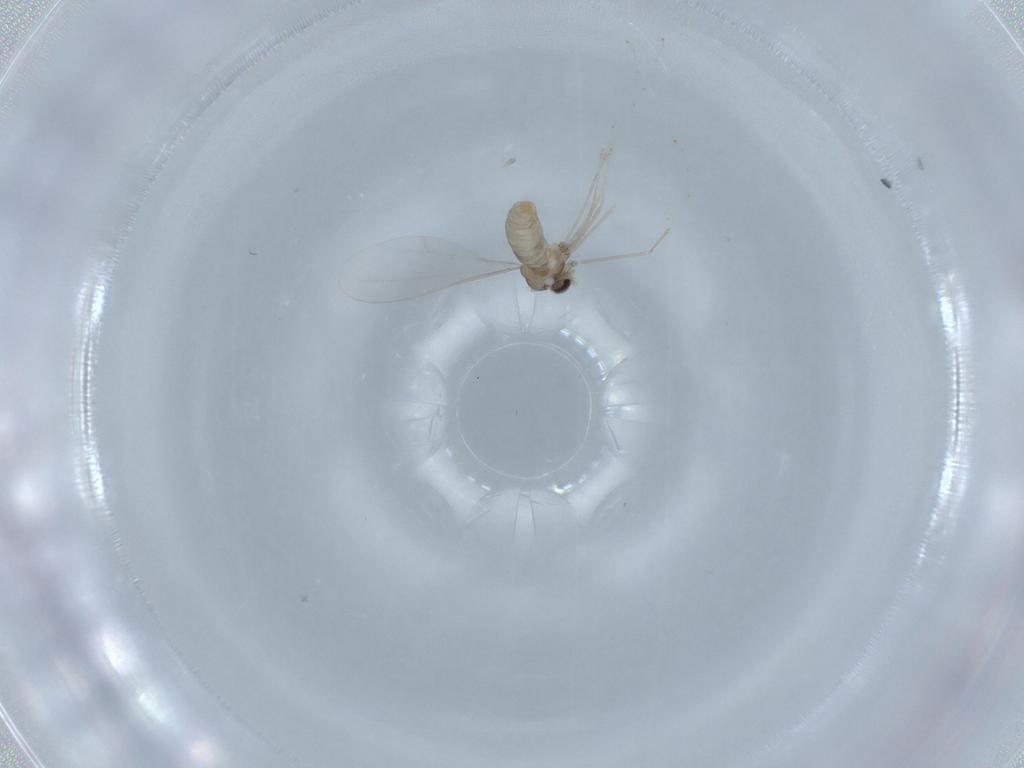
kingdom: Animalia
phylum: Arthropoda
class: Insecta
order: Diptera
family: Cecidomyiidae
